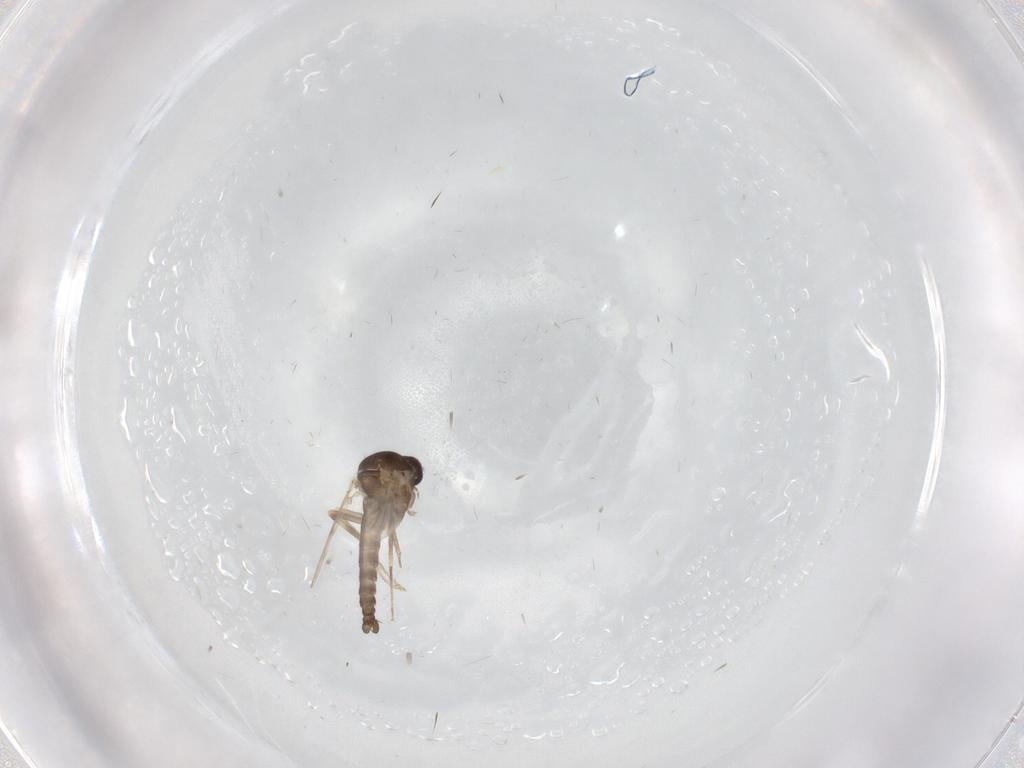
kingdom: Animalia
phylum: Arthropoda
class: Insecta
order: Diptera
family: Ceratopogonidae
